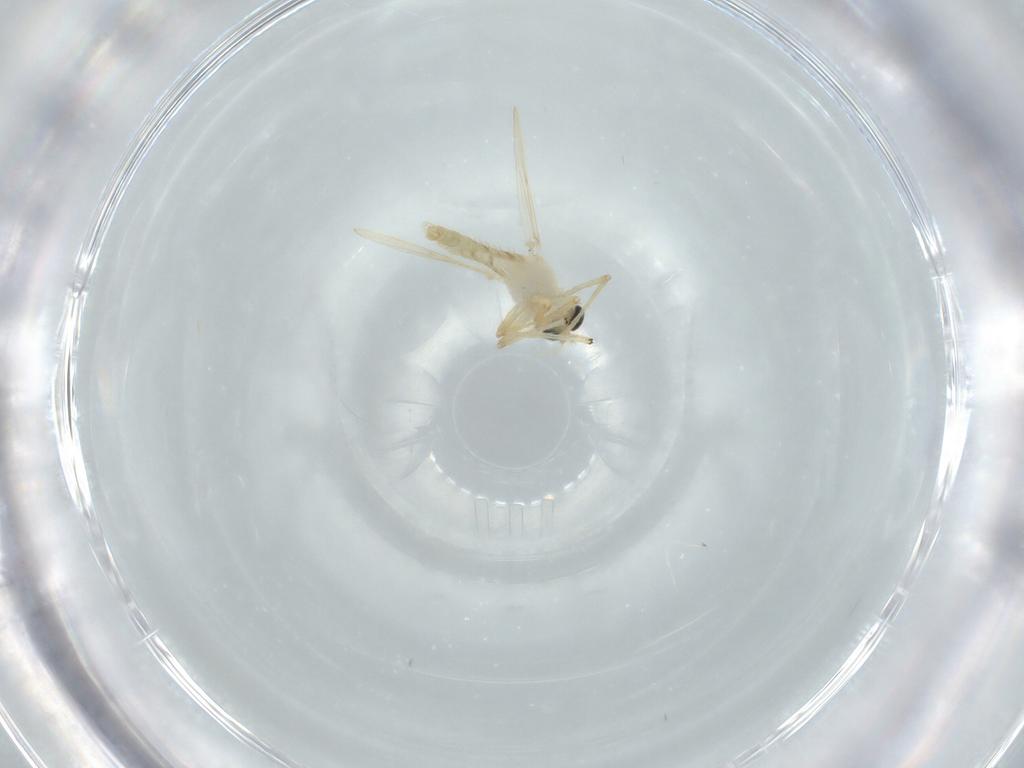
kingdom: Animalia
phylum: Arthropoda
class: Insecta
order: Diptera
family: Chironomidae
